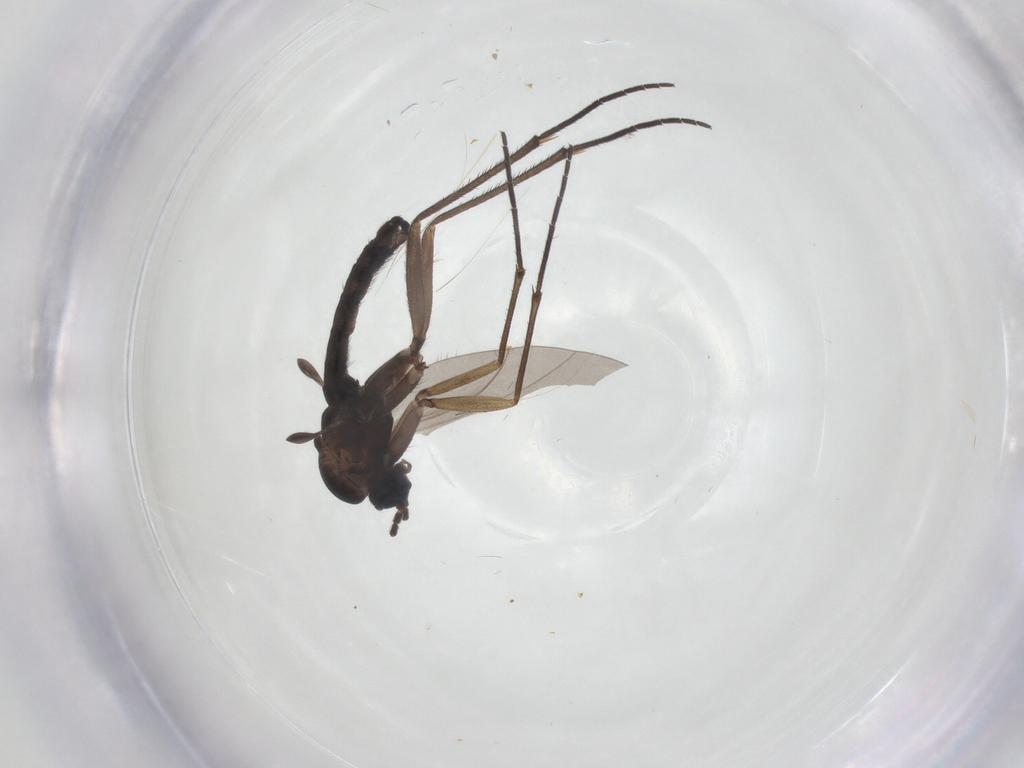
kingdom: Animalia
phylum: Arthropoda
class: Insecta
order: Diptera
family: Sciaridae
